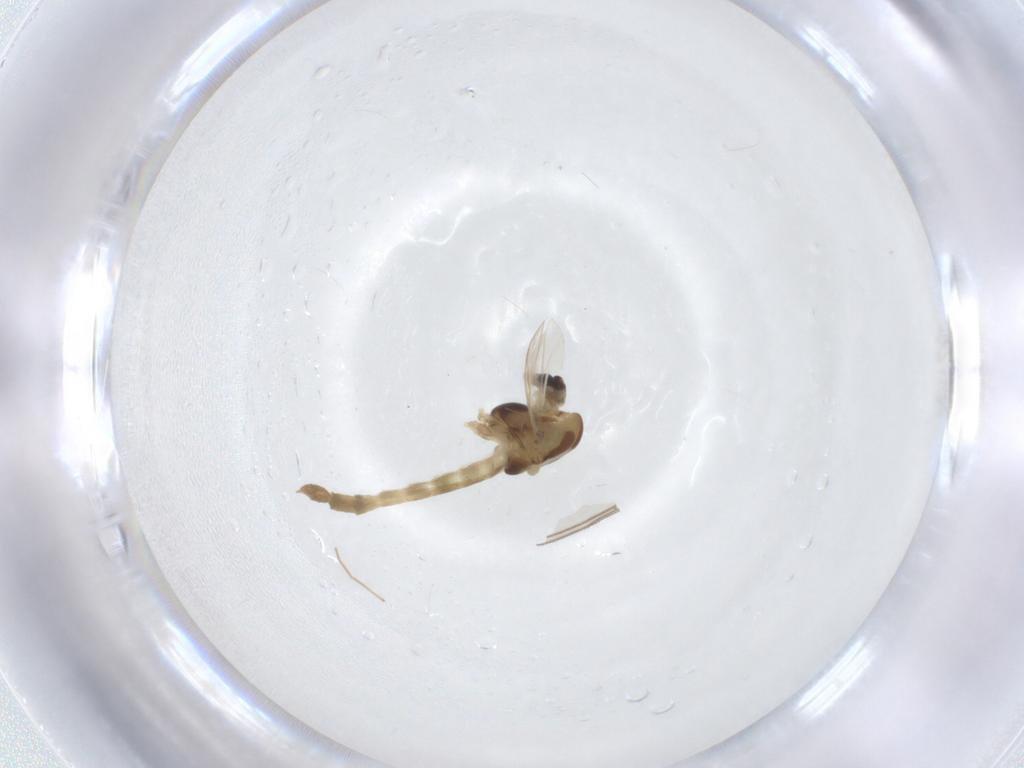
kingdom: Animalia
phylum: Arthropoda
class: Insecta
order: Diptera
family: Chironomidae
